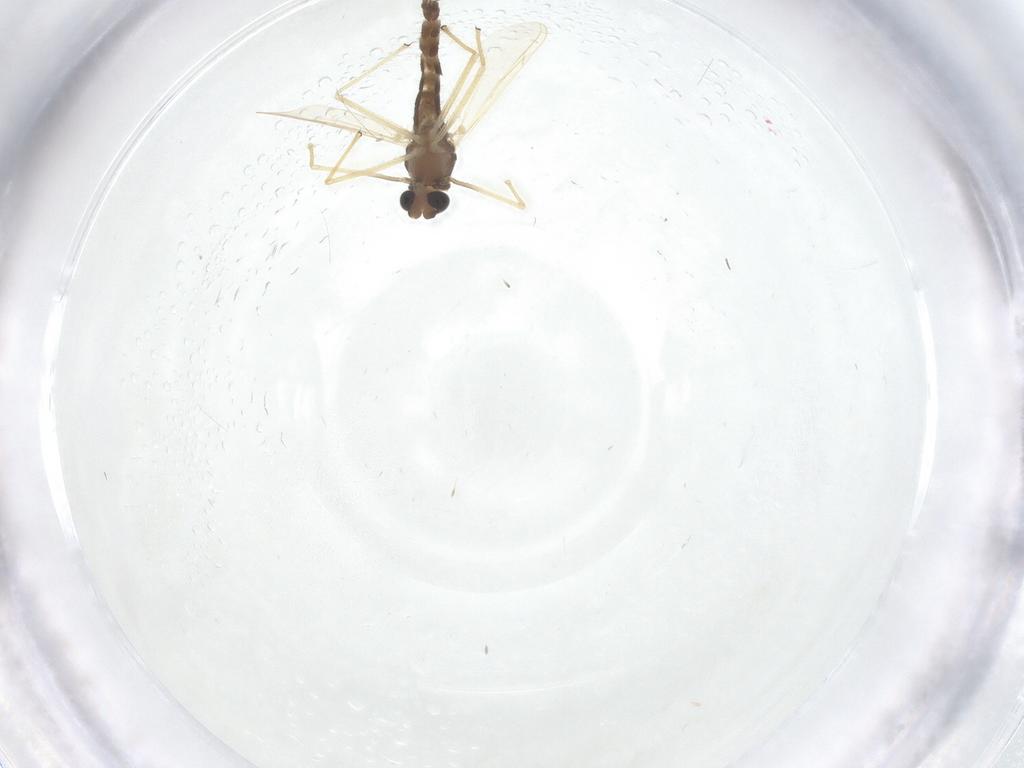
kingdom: Animalia
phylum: Arthropoda
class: Insecta
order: Diptera
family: Chironomidae
